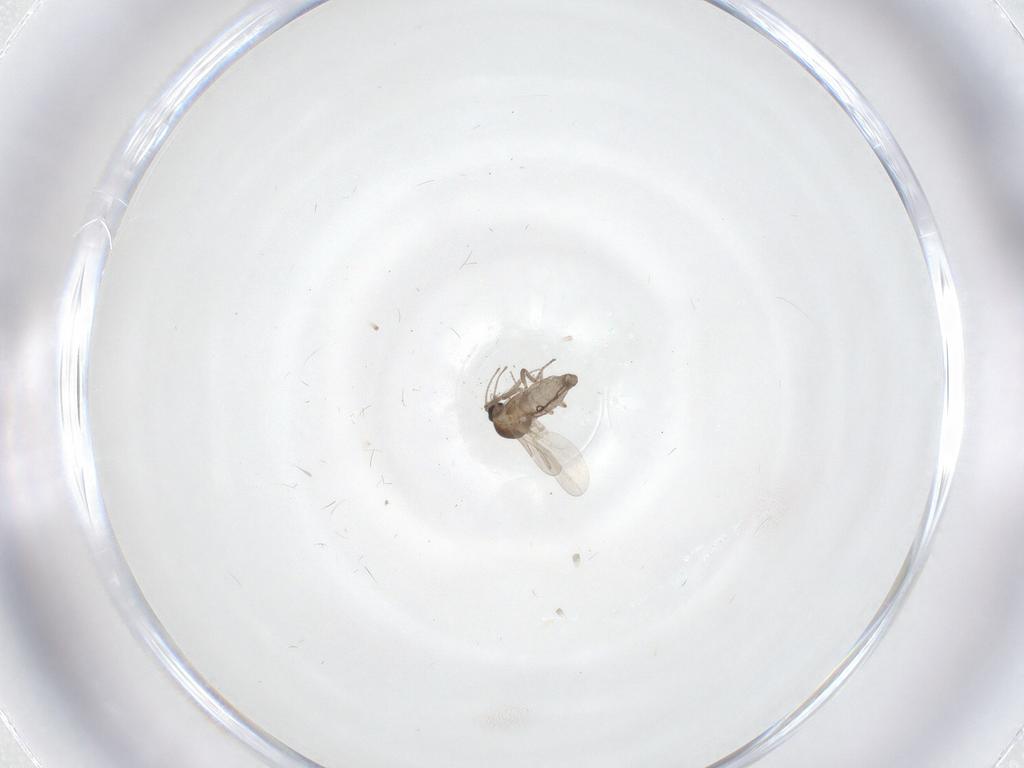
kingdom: Animalia
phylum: Arthropoda
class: Insecta
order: Diptera
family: Ceratopogonidae
